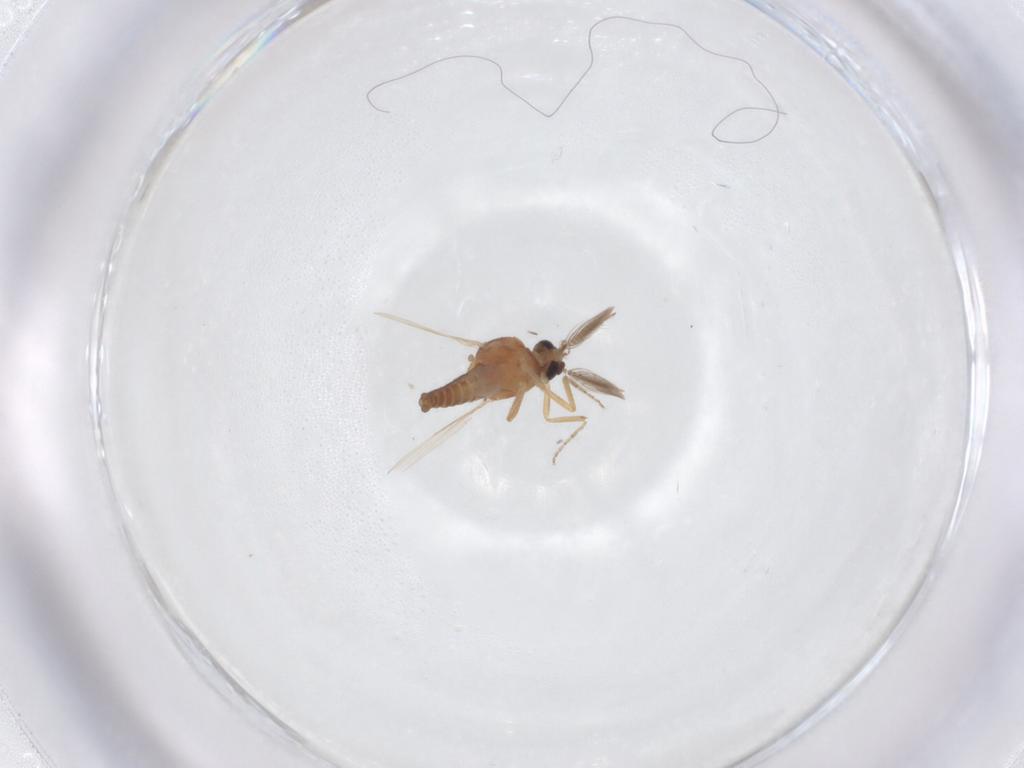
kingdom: Animalia
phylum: Arthropoda
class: Insecta
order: Diptera
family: Ceratopogonidae
